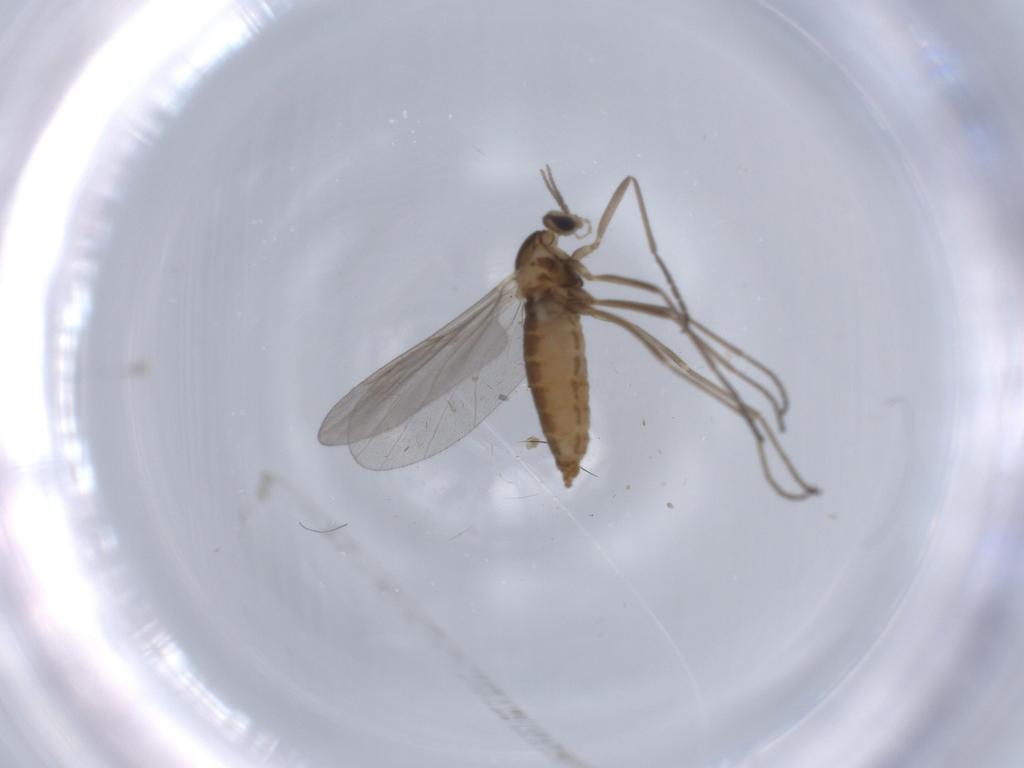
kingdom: Animalia
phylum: Arthropoda
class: Insecta
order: Diptera
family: Cecidomyiidae
